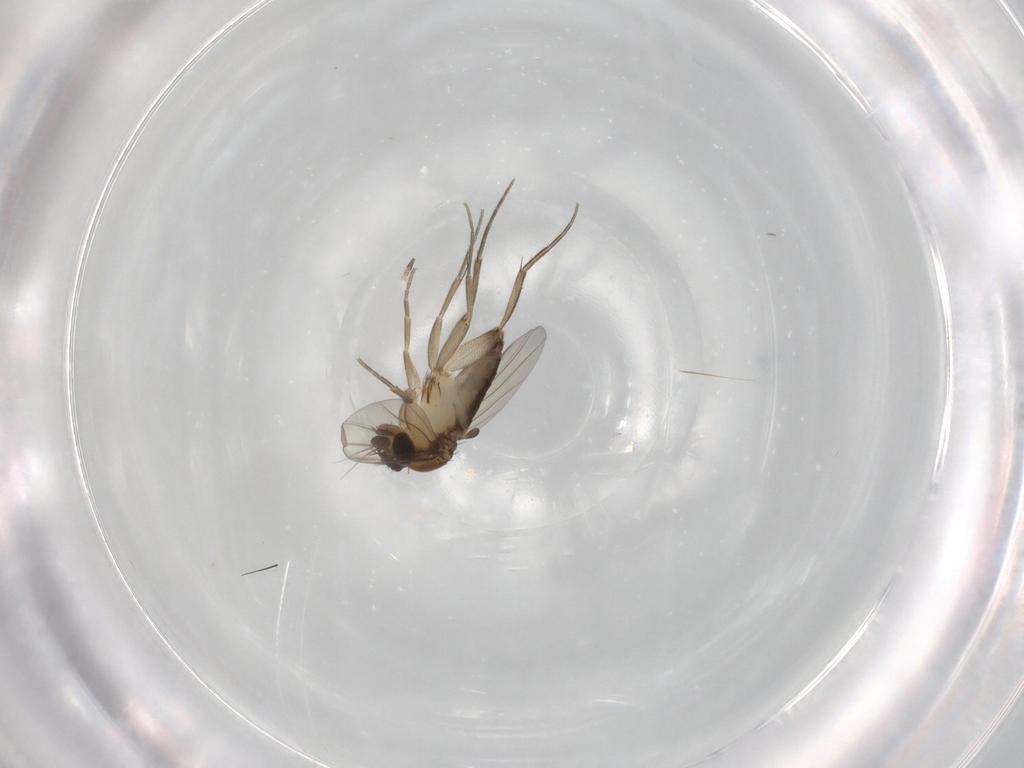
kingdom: Animalia
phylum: Arthropoda
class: Insecta
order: Diptera
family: Phoridae
